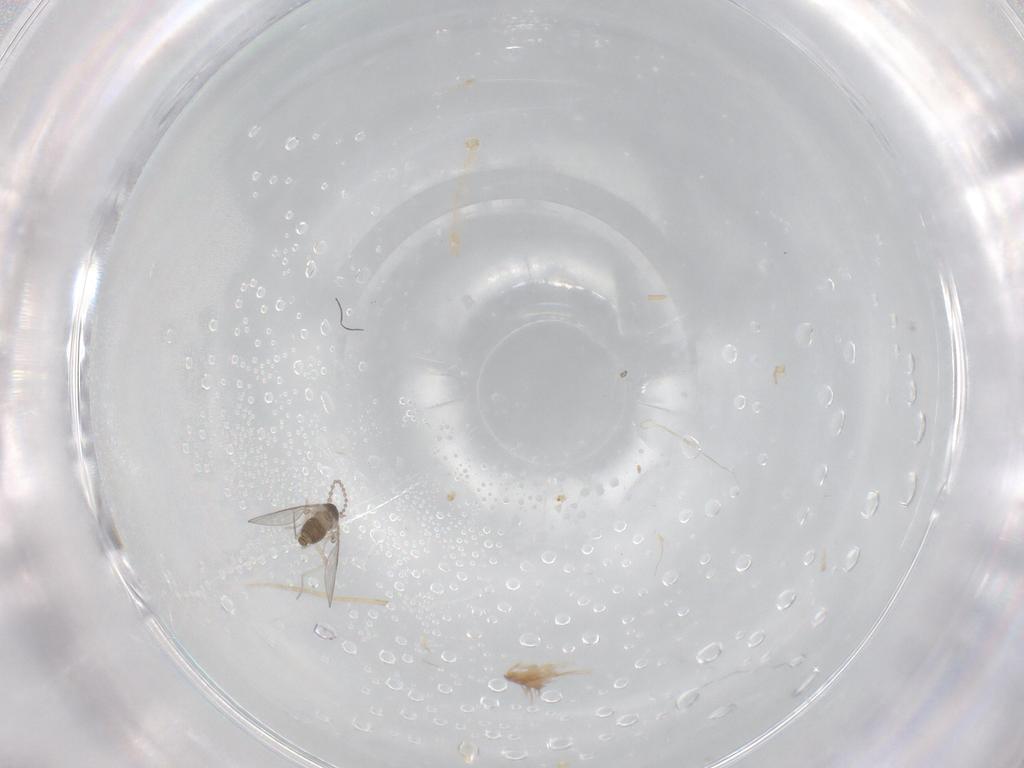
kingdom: Animalia
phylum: Arthropoda
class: Insecta
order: Diptera
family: Cecidomyiidae
